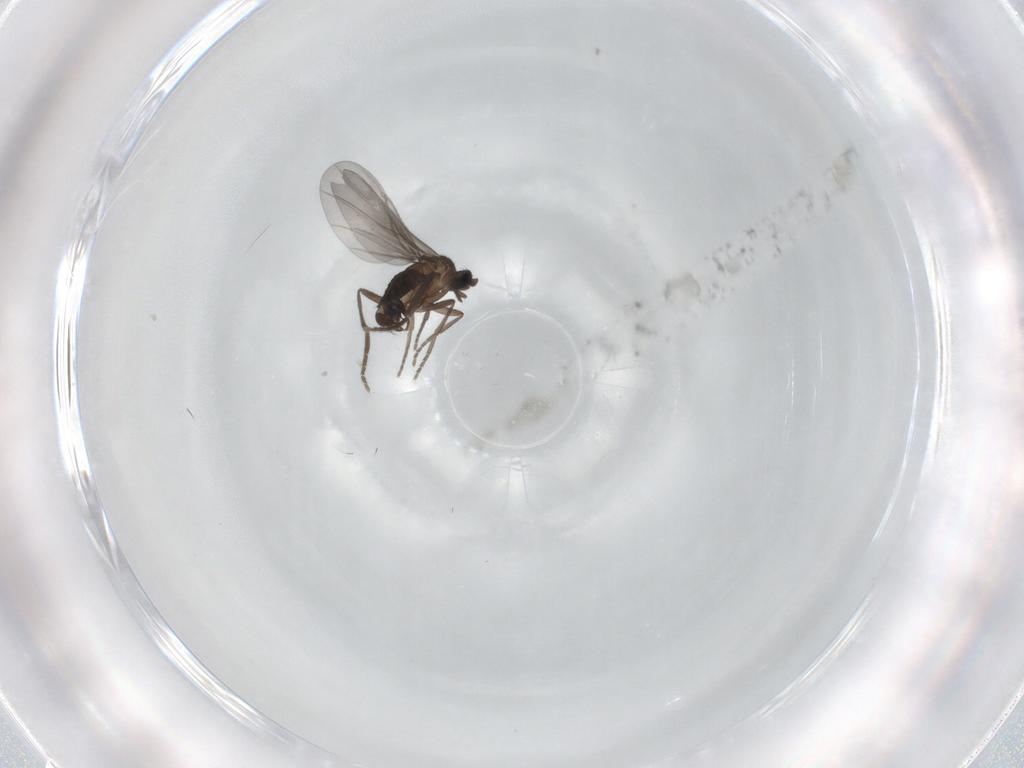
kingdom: Animalia
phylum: Arthropoda
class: Insecta
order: Diptera
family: Phoridae
